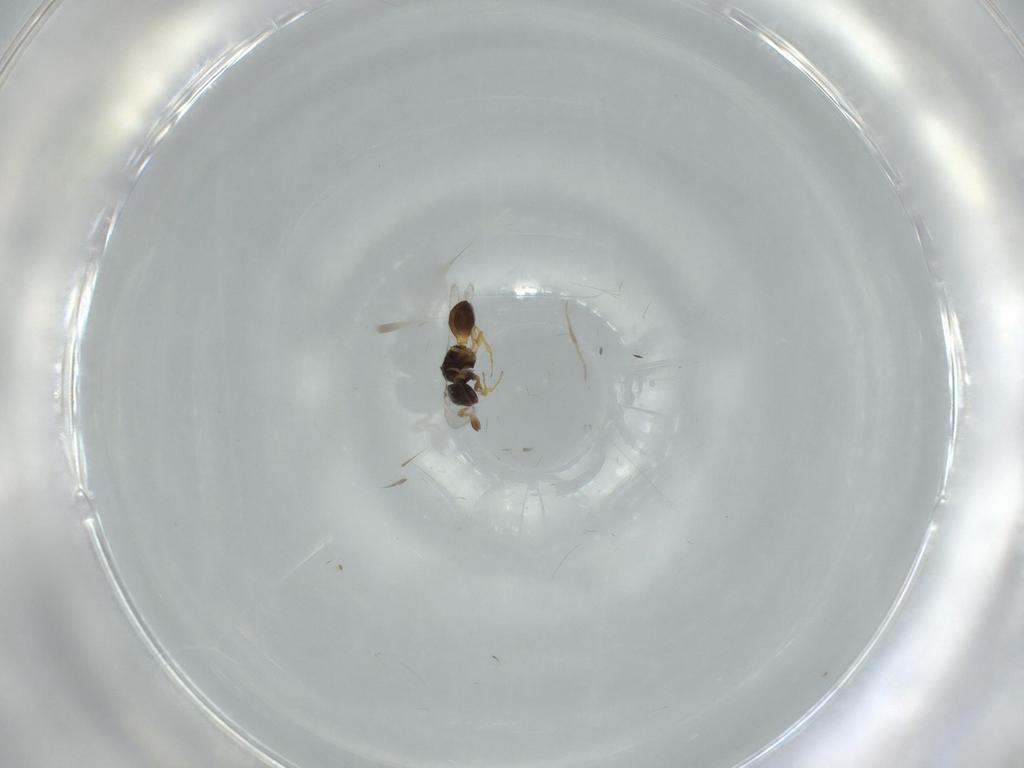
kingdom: Animalia
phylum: Arthropoda
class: Insecta
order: Hymenoptera
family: Scelionidae
